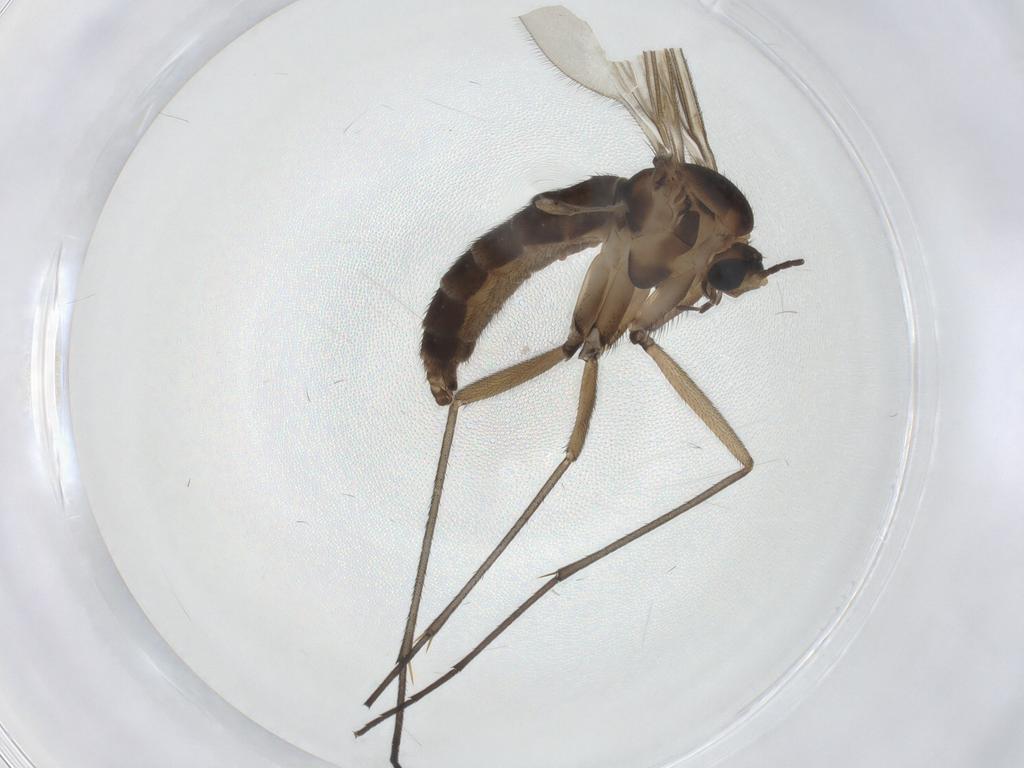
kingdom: Animalia
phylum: Arthropoda
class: Insecta
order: Diptera
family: Sciaridae
